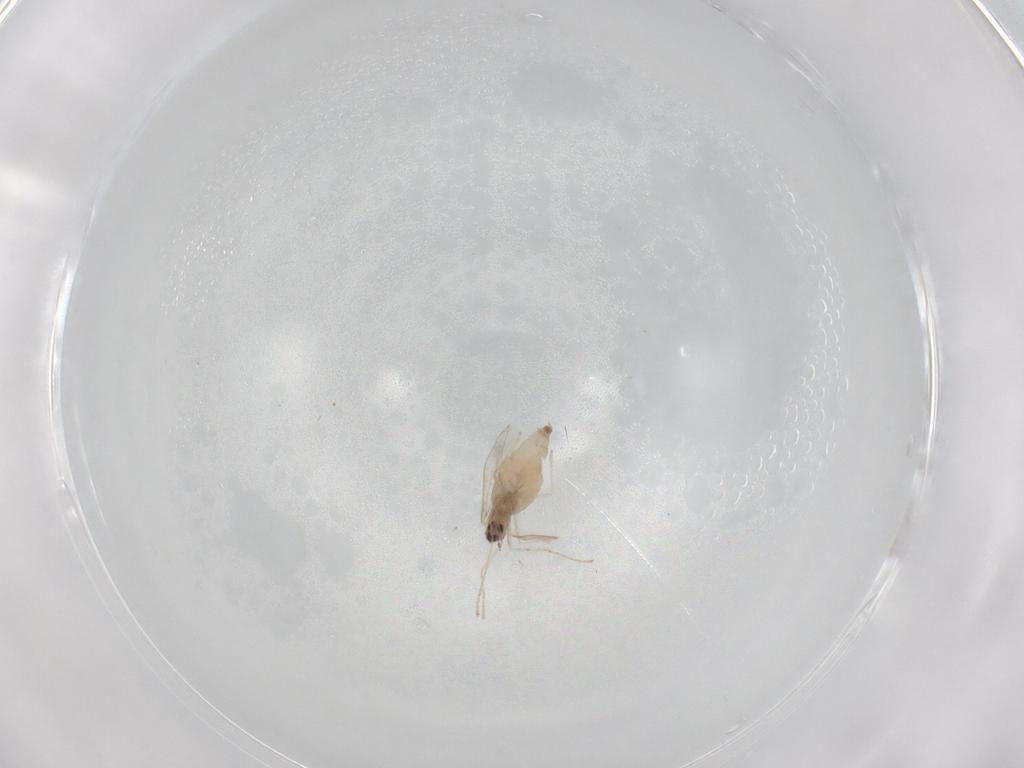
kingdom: Animalia
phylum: Arthropoda
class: Insecta
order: Diptera
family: Cecidomyiidae
